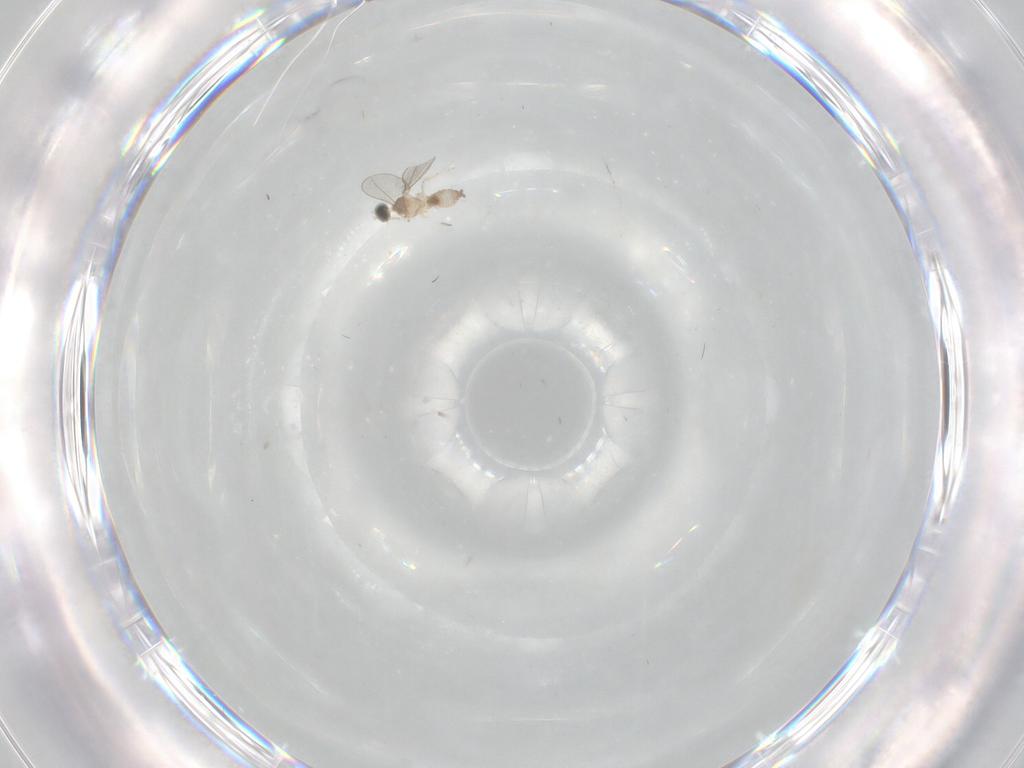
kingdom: Animalia
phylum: Arthropoda
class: Insecta
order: Diptera
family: Cecidomyiidae
